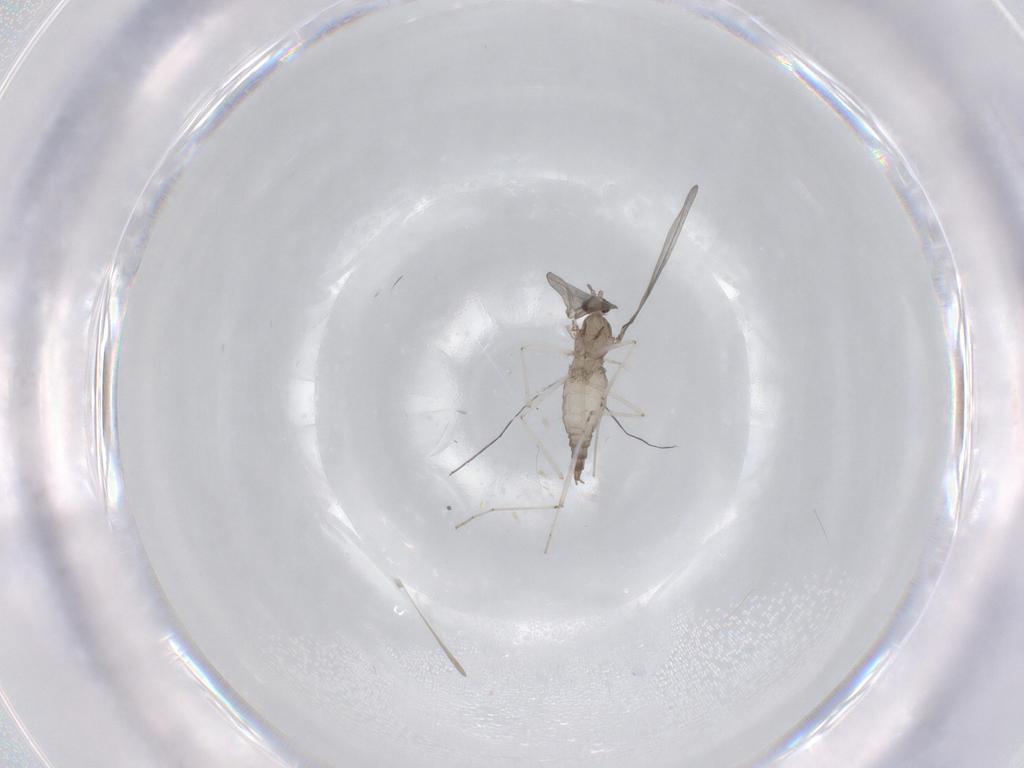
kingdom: Animalia
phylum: Arthropoda
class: Insecta
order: Diptera
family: Cecidomyiidae
